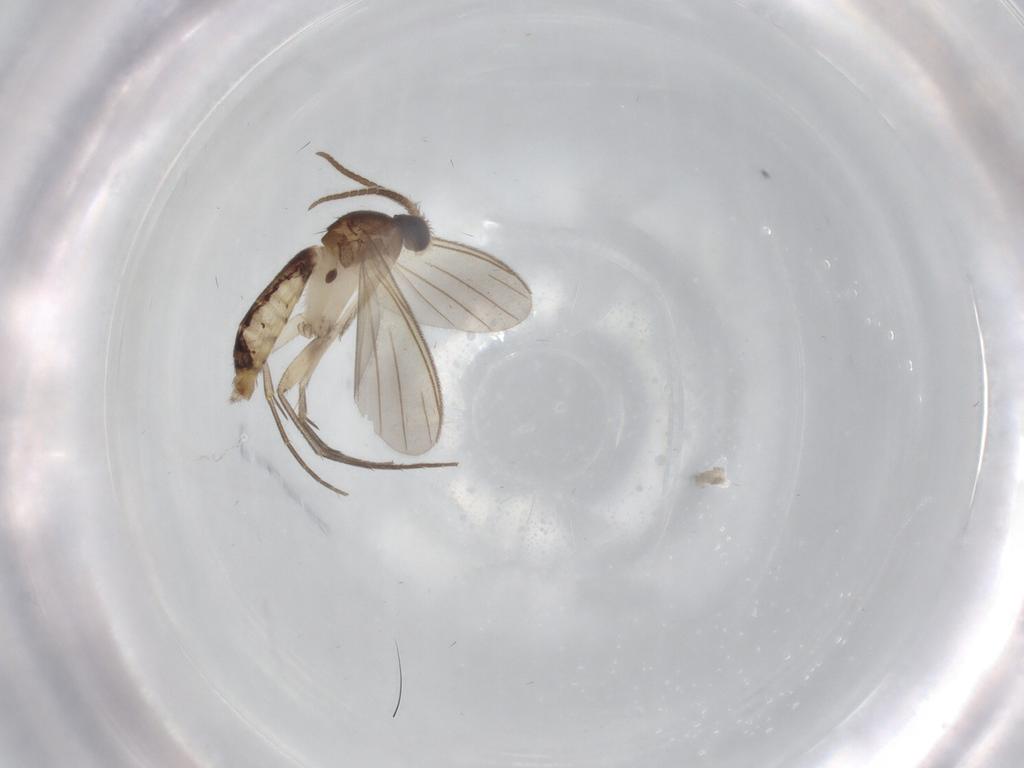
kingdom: Animalia
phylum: Arthropoda
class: Insecta
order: Diptera
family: Mycetophilidae
